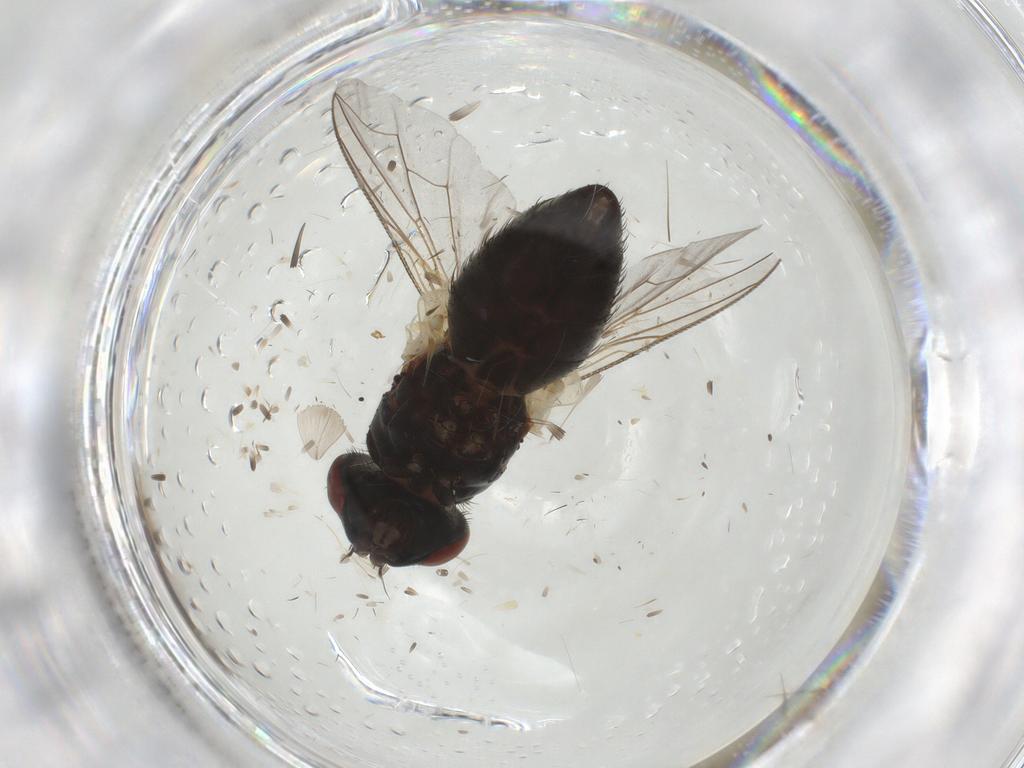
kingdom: Animalia
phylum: Arthropoda
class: Insecta
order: Diptera
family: Sarcophagidae
